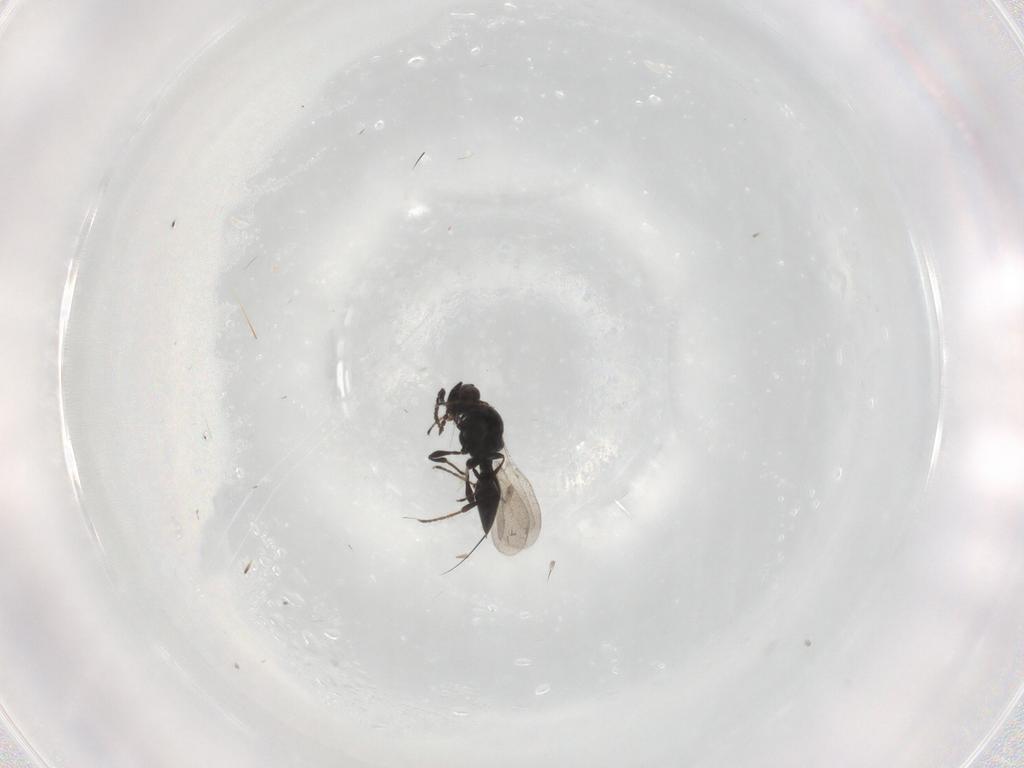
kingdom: Animalia
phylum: Arthropoda
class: Insecta
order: Hymenoptera
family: Platygastridae
